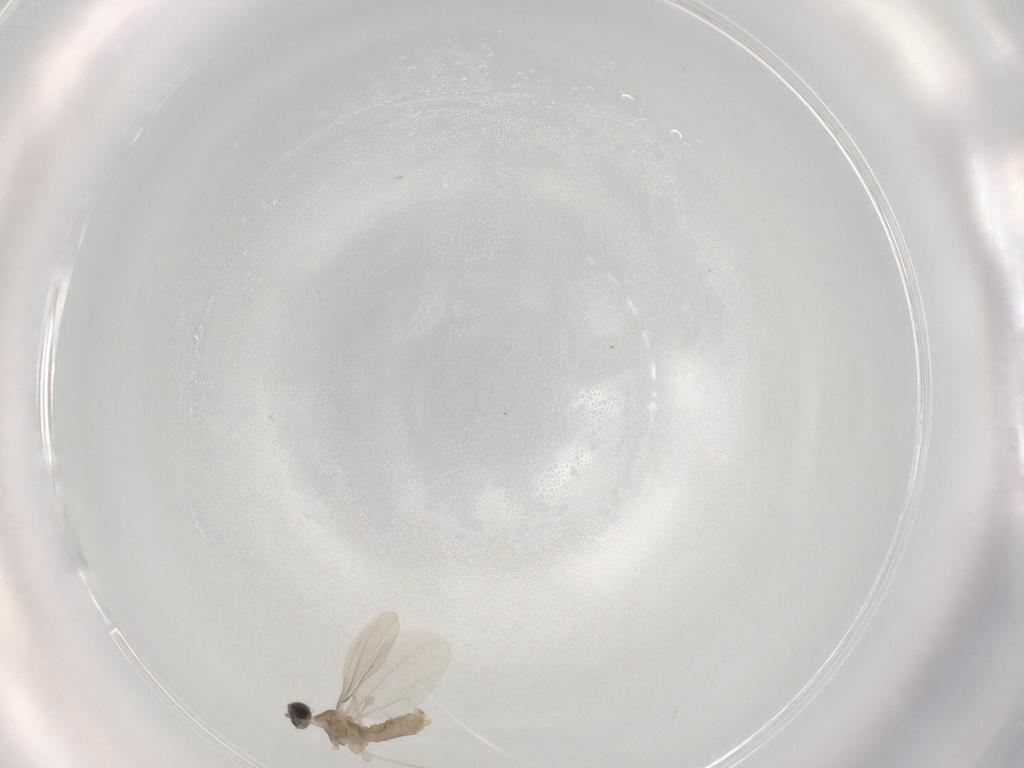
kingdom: Animalia
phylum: Arthropoda
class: Insecta
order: Diptera
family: Cecidomyiidae
